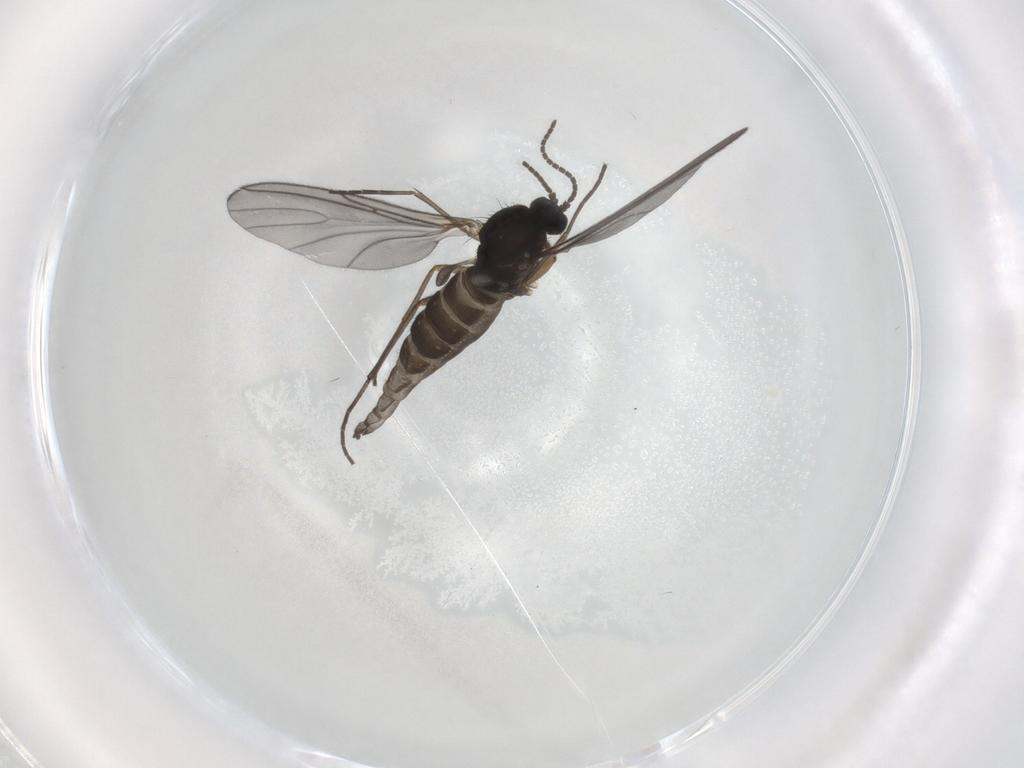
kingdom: Animalia
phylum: Arthropoda
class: Insecta
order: Diptera
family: Sciaridae
